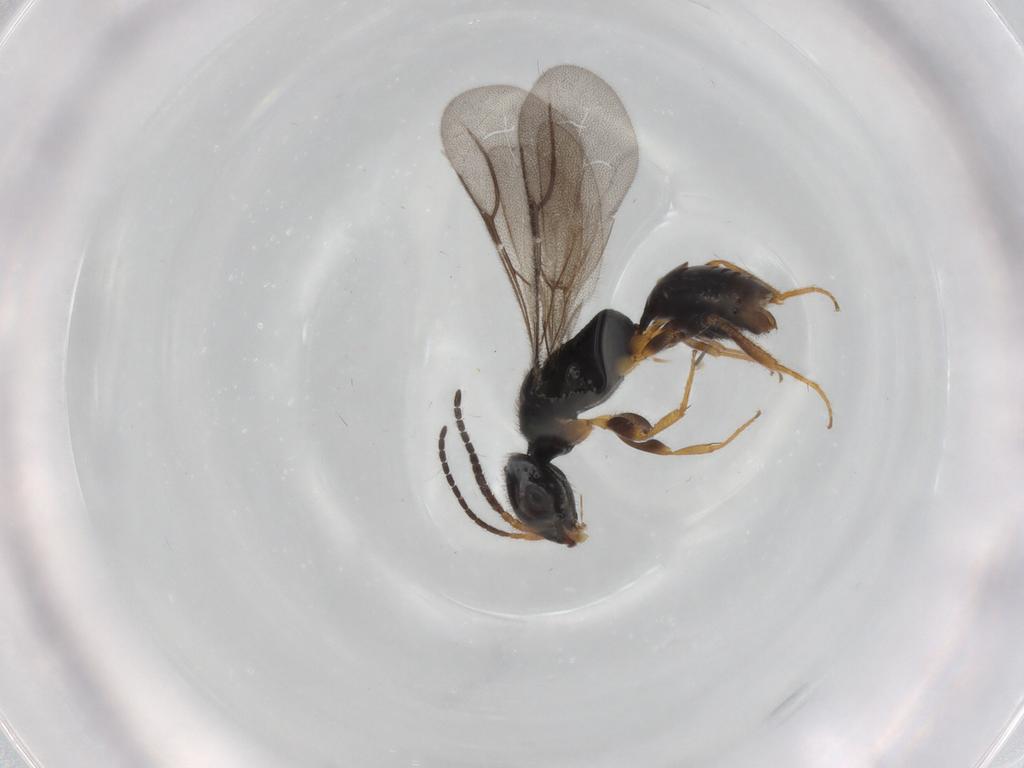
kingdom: Animalia
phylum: Arthropoda
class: Insecta
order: Hymenoptera
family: Bethylidae
